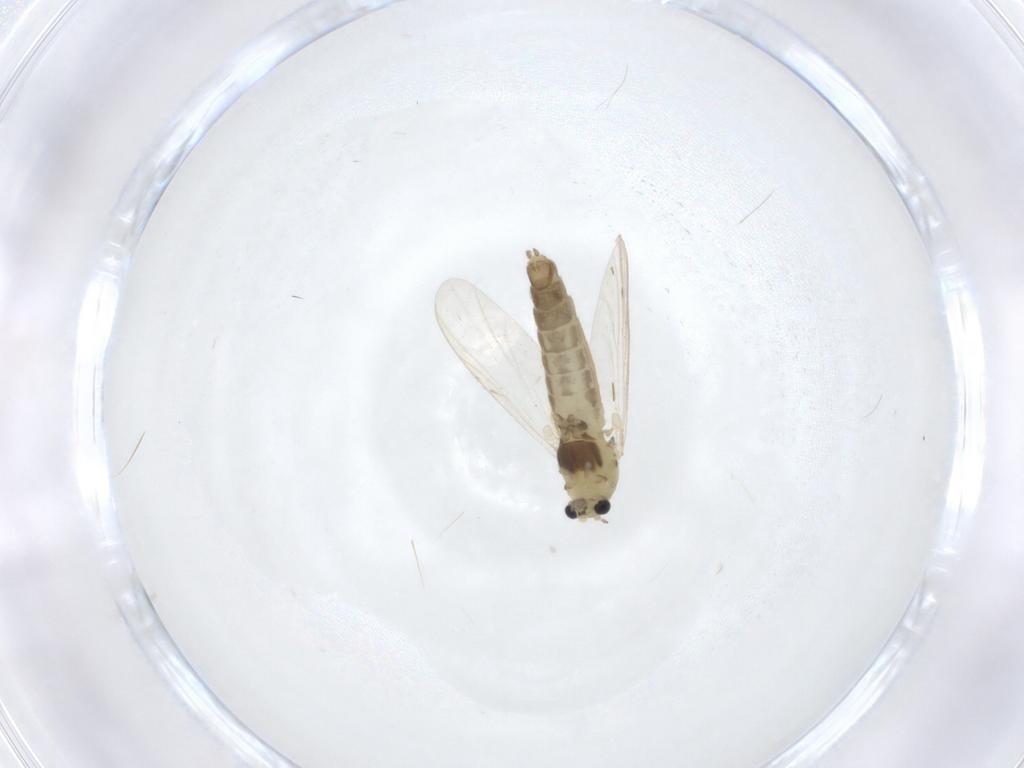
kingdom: Animalia
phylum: Arthropoda
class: Insecta
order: Diptera
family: Chironomidae
